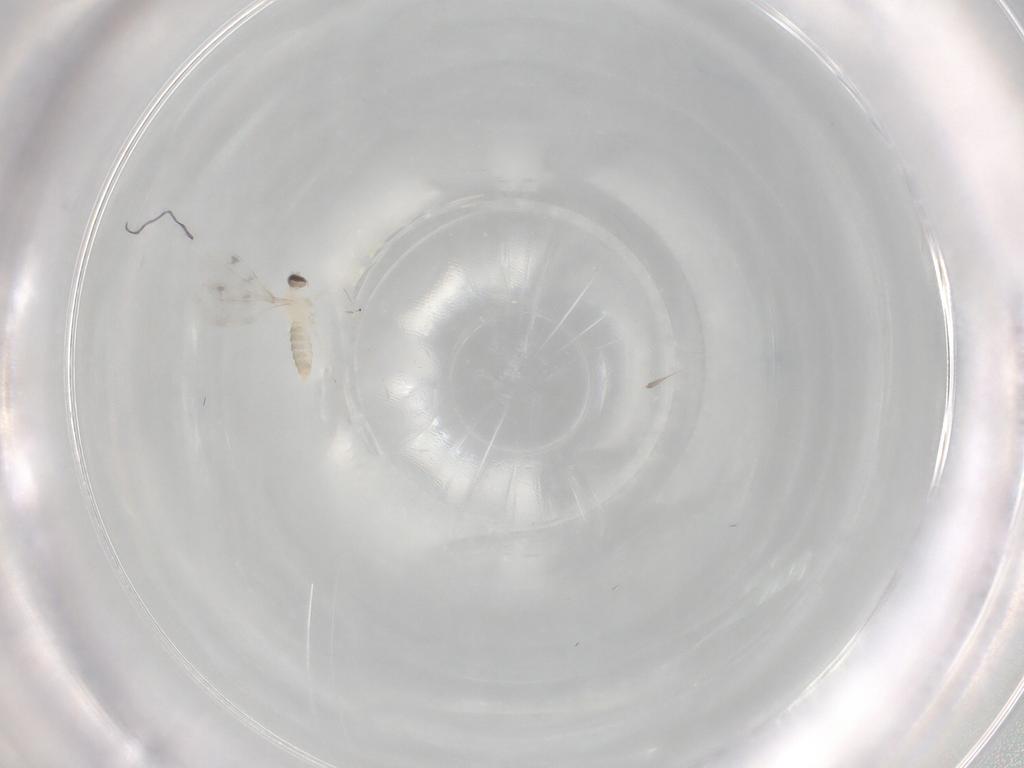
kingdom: Animalia
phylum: Arthropoda
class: Insecta
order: Diptera
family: Cecidomyiidae
